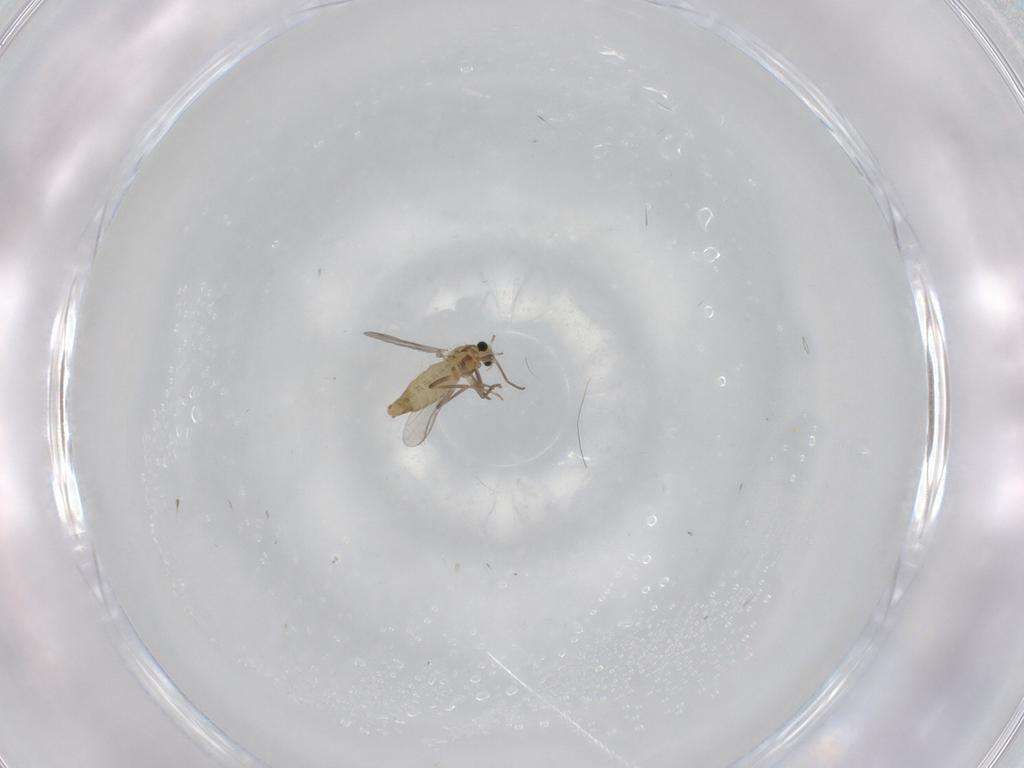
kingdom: Animalia
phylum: Arthropoda
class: Insecta
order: Diptera
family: Chironomidae
